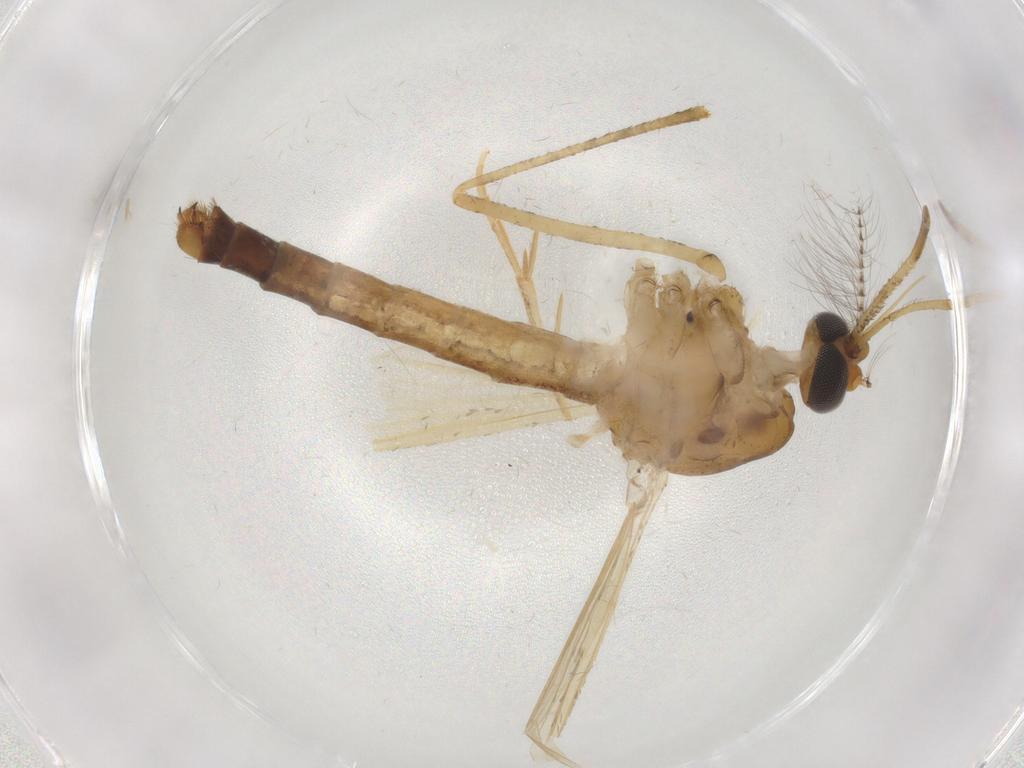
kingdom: Animalia
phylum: Arthropoda
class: Insecta
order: Diptera
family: Chironomidae
